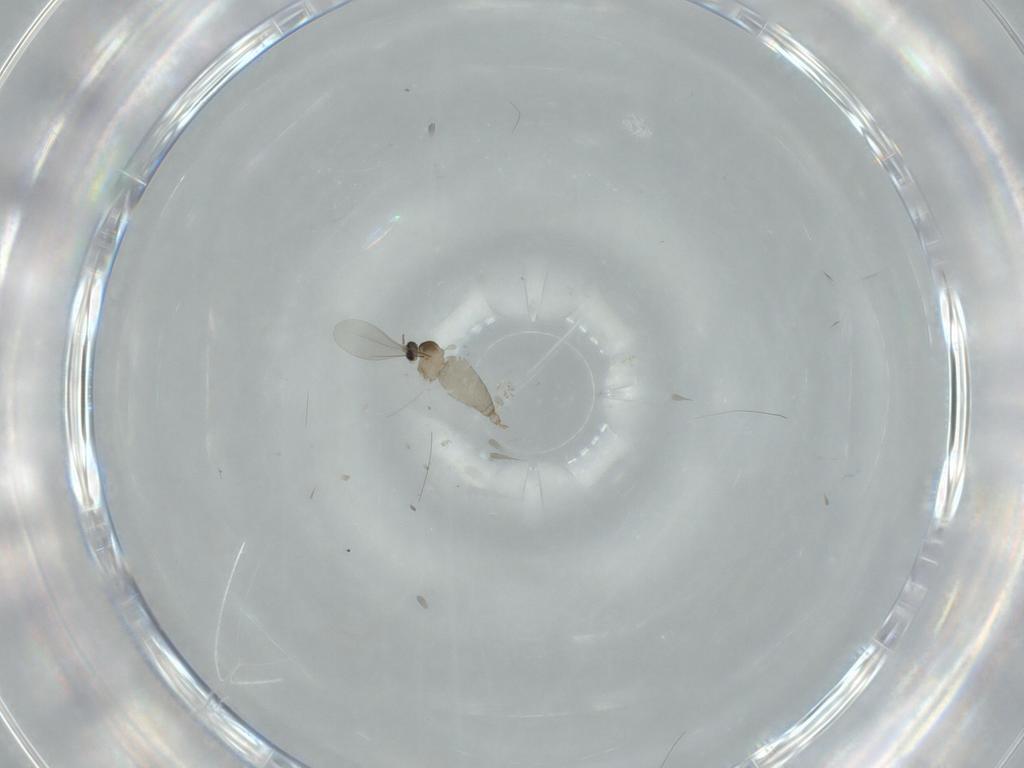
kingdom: Animalia
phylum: Arthropoda
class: Insecta
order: Diptera
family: Sciaridae
